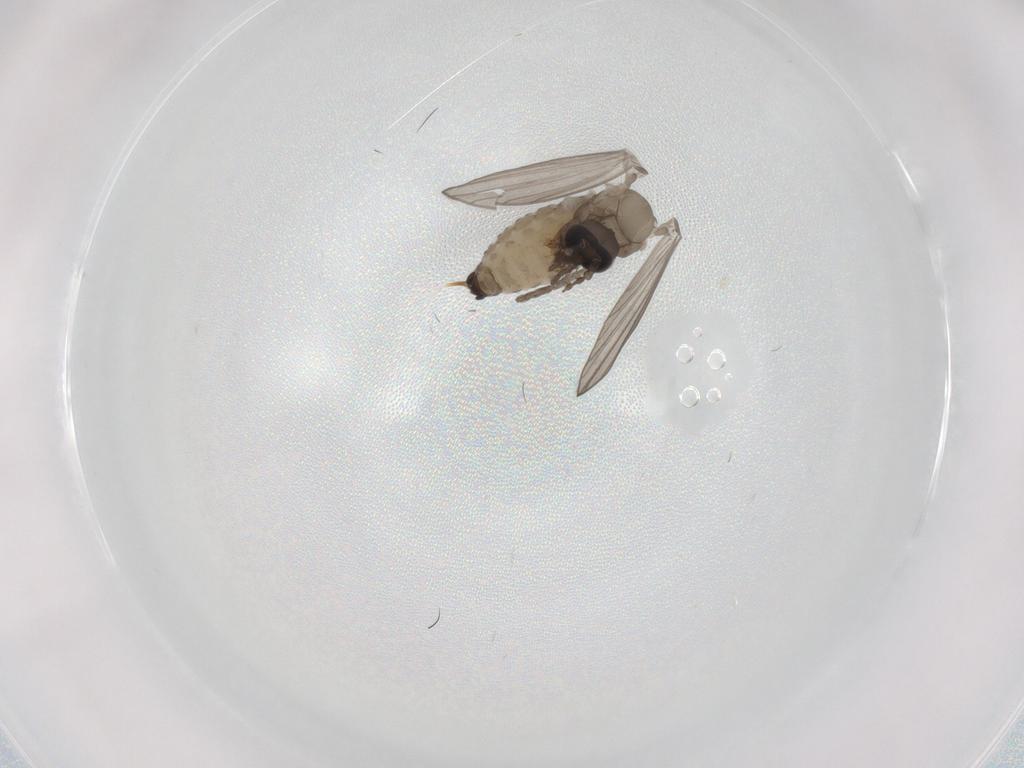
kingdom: Animalia
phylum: Arthropoda
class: Insecta
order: Diptera
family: Psychodidae
